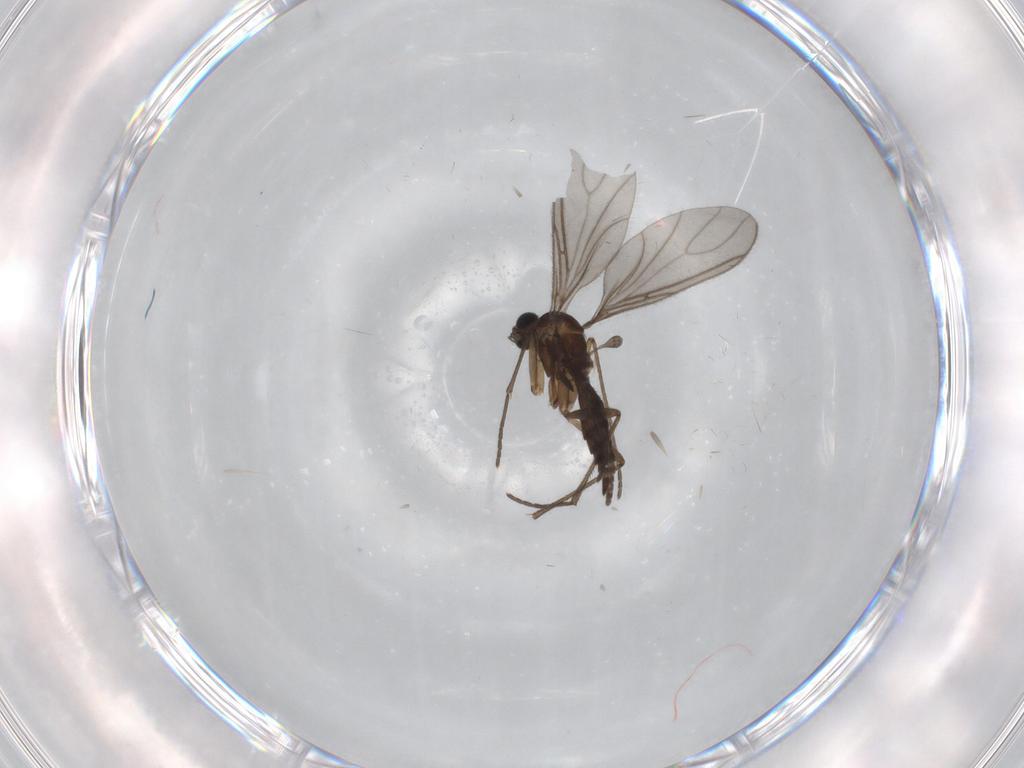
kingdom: Animalia
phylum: Arthropoda
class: Insecta
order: Diptera
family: Sciaridae
